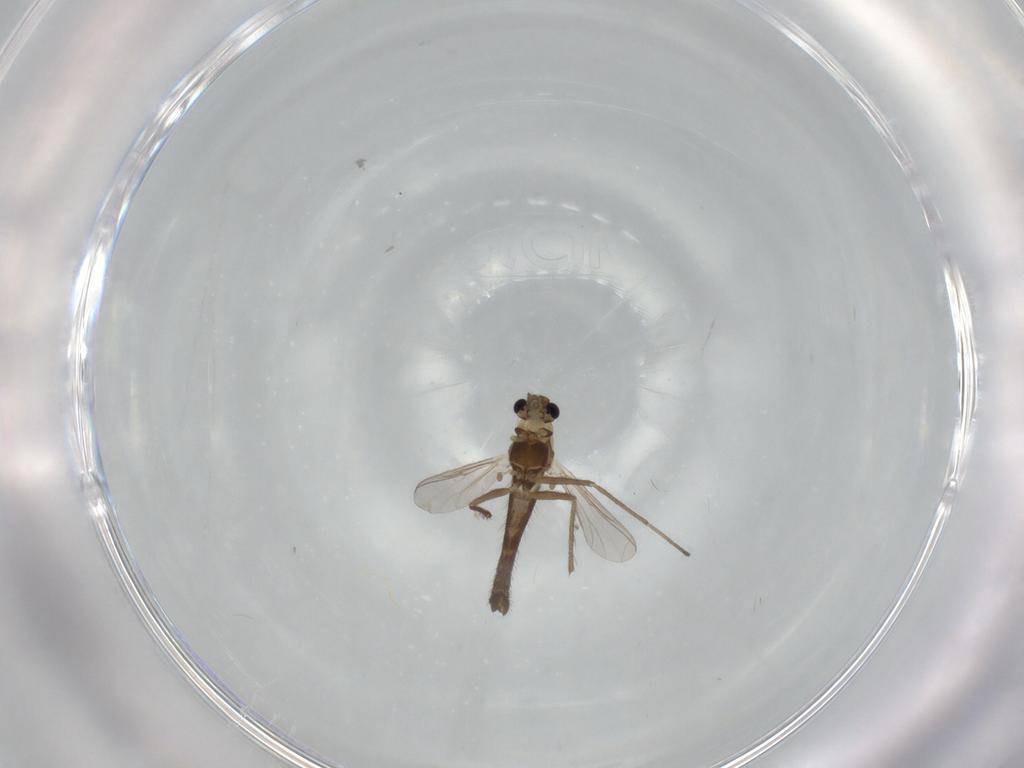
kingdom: Animalia
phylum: Arthropoda
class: Insecta
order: Diptera
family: Chironomidae
